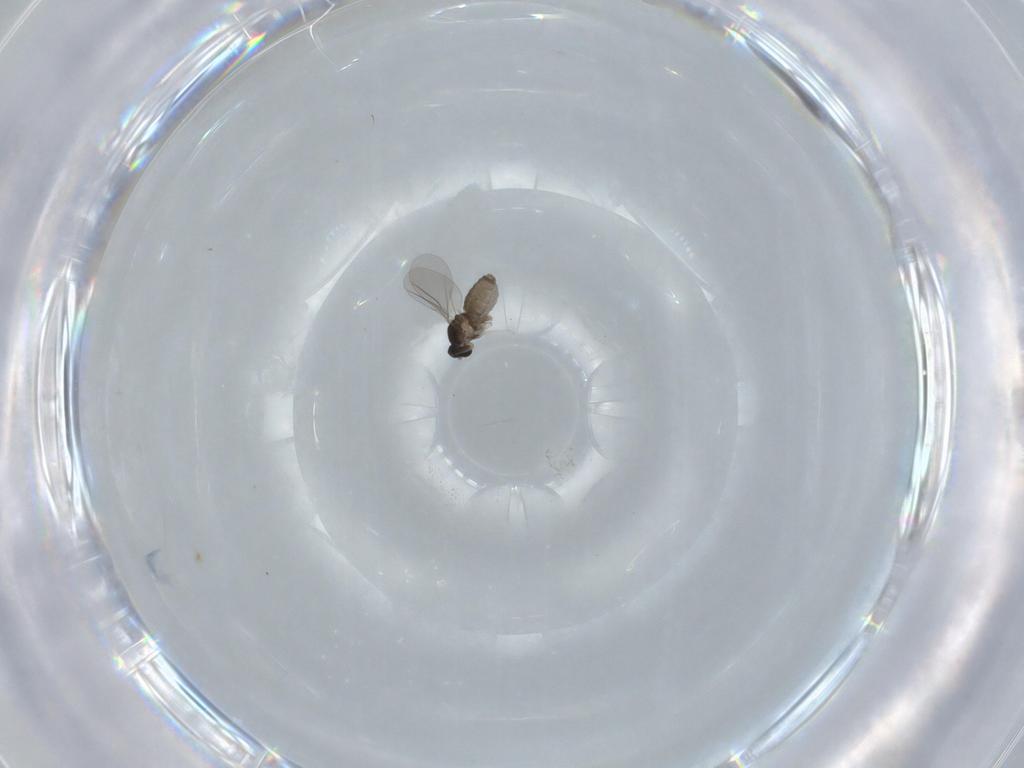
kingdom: Animalia
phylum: Arthropoda
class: Insecta
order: Diptera
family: Cecidomyiidae
